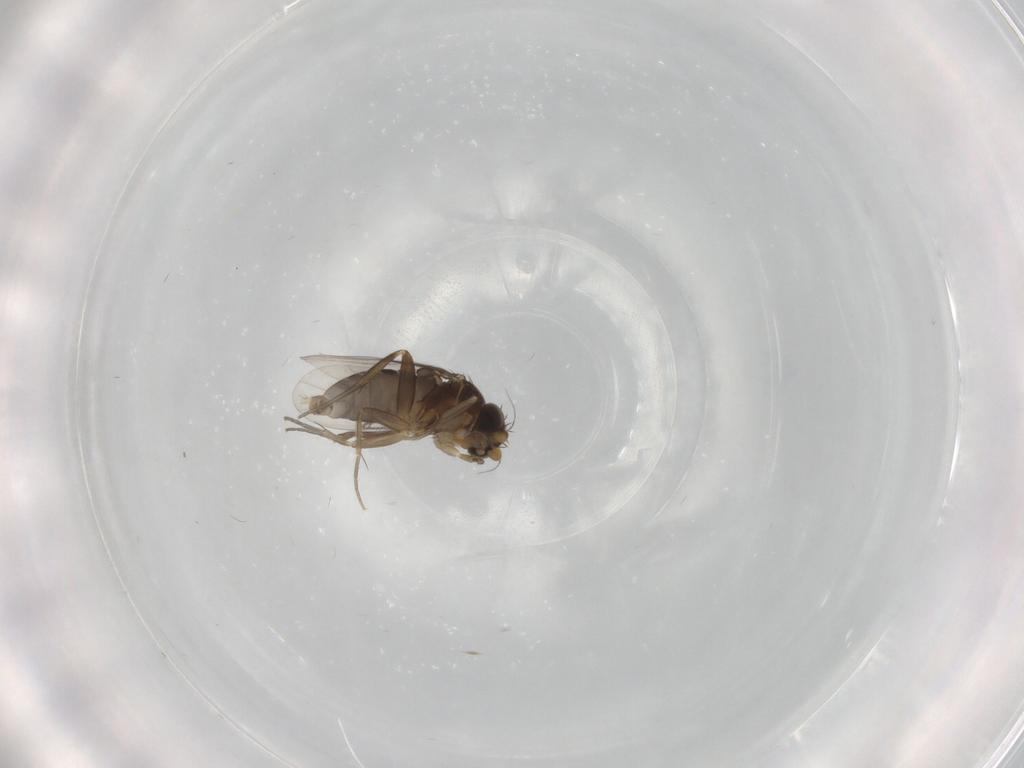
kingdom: Animalia
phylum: Arthropoda
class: Insecta
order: Diptera
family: Phoridae
